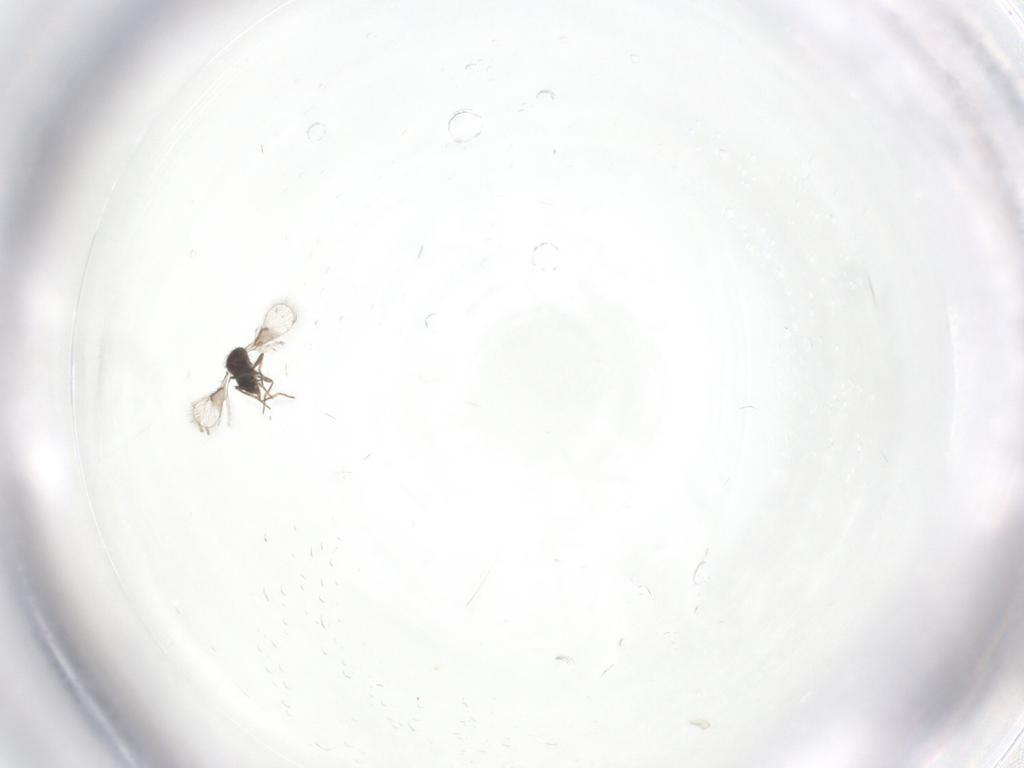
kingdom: Animalia
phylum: Arthropoda
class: Insecta
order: Hymenoptera
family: Trichogrammatidae
